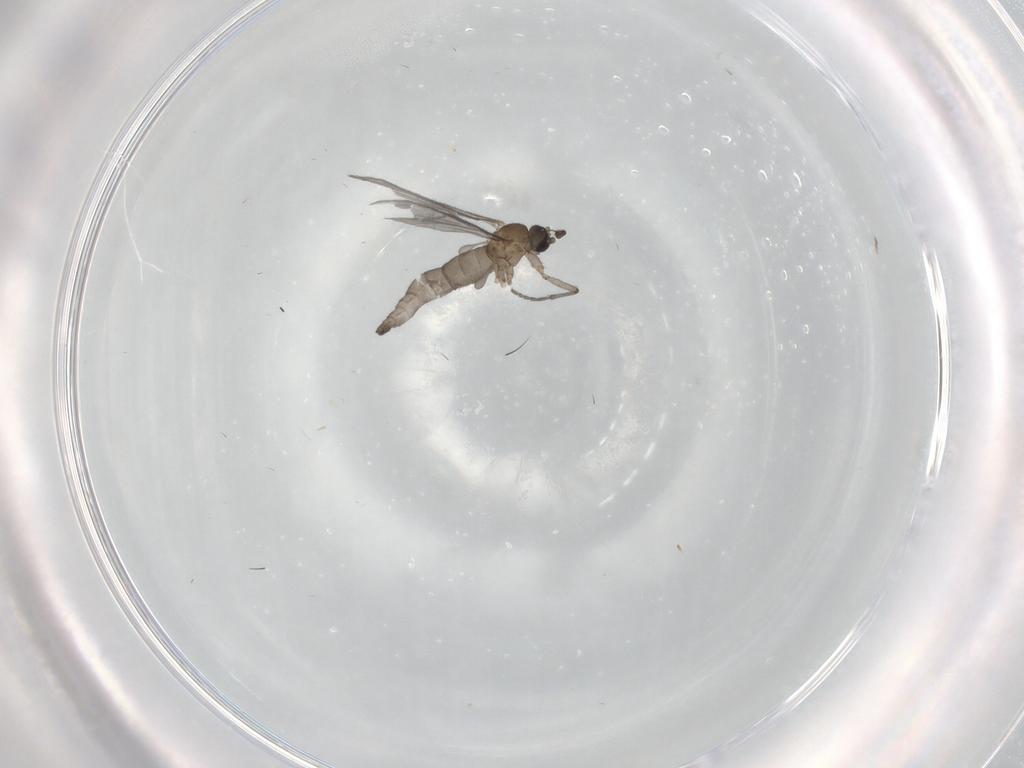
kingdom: Animalia
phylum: Arthropoda
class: Insecta
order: Diptera
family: Sciaridae
